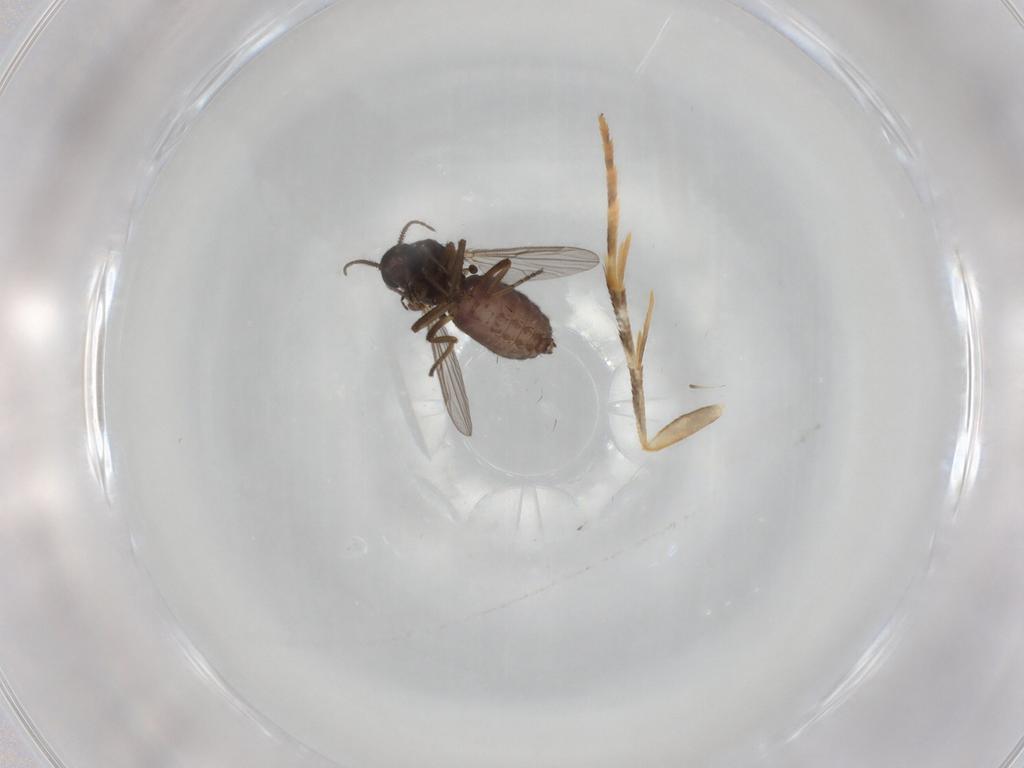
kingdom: Animalia
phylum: Arthropoda
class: Insecta
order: Diptera
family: Ceratopogonidae
